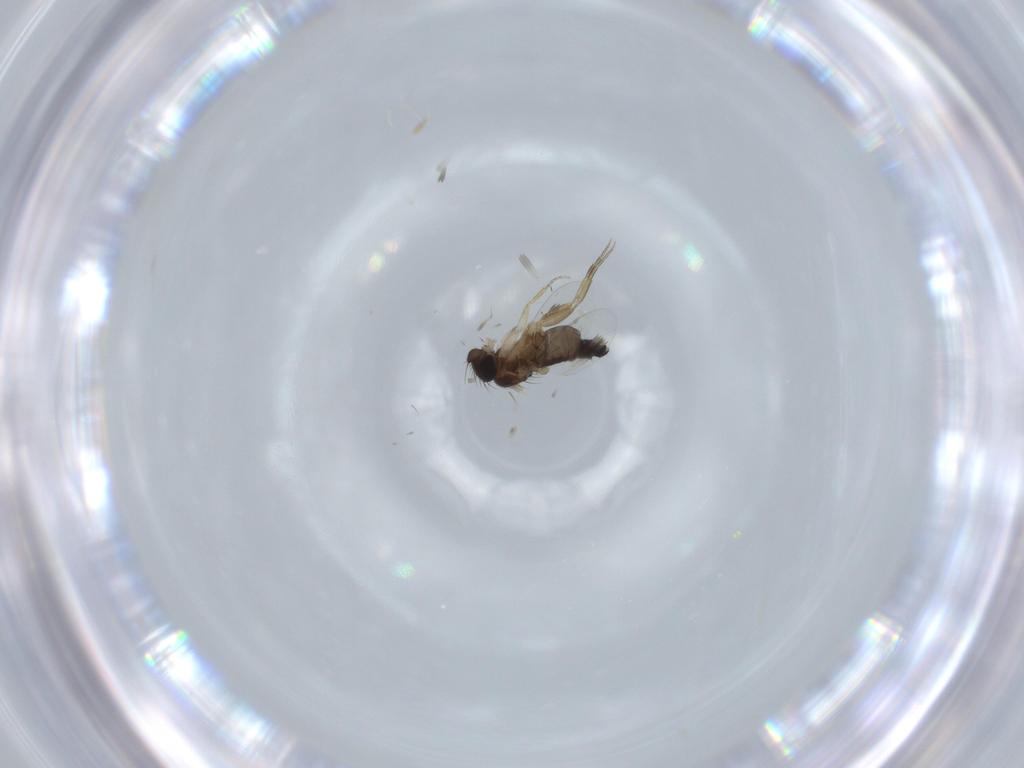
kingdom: Animalia
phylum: Arthropoda
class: Insecta
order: Diptera
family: Phoridae
